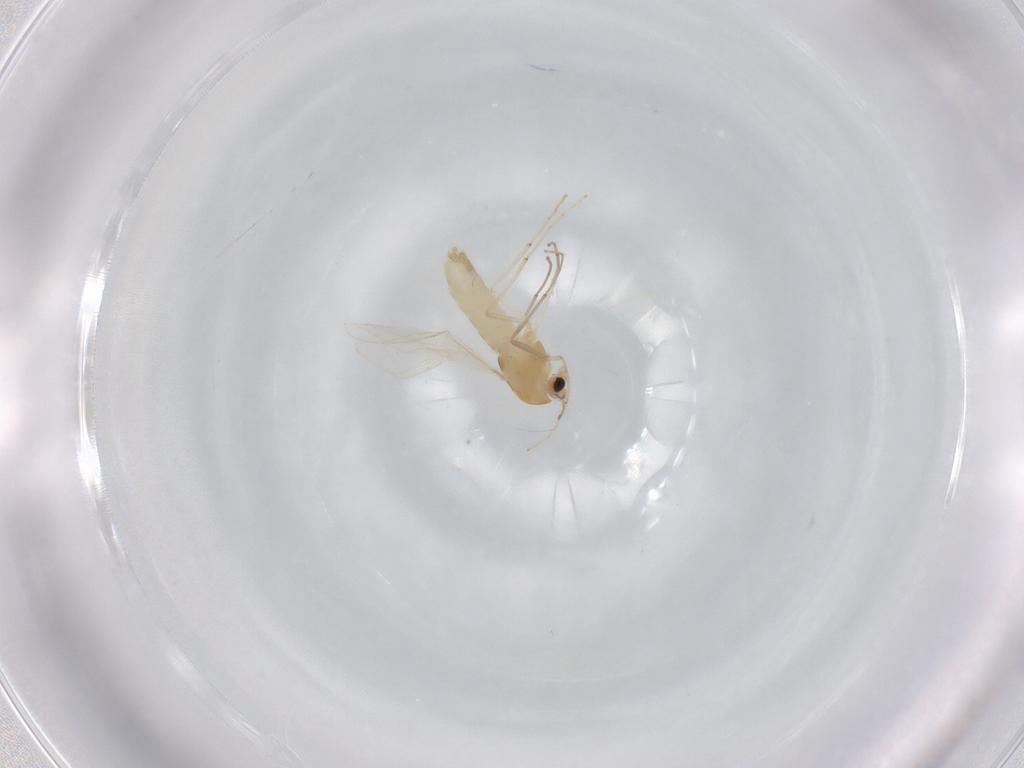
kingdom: Animalia
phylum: Arthropoda
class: Insecta
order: Diptera
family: Chironomidae
